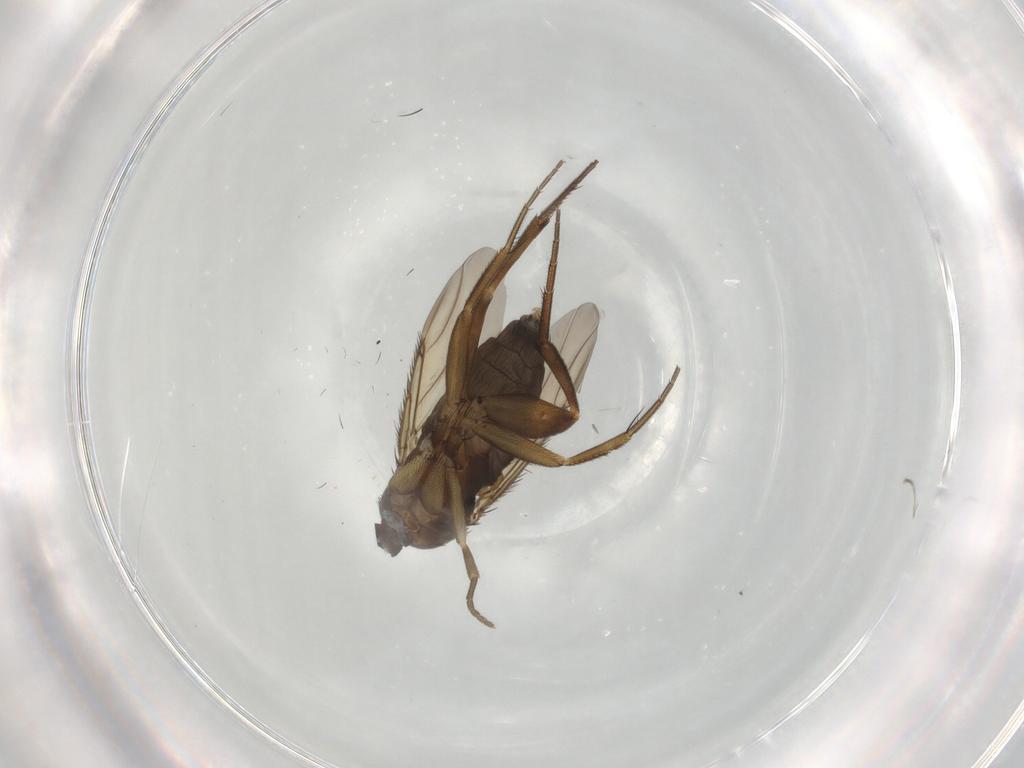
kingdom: Animalia
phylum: Arthropoda
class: Insecta
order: Diptera
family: Phoridae
